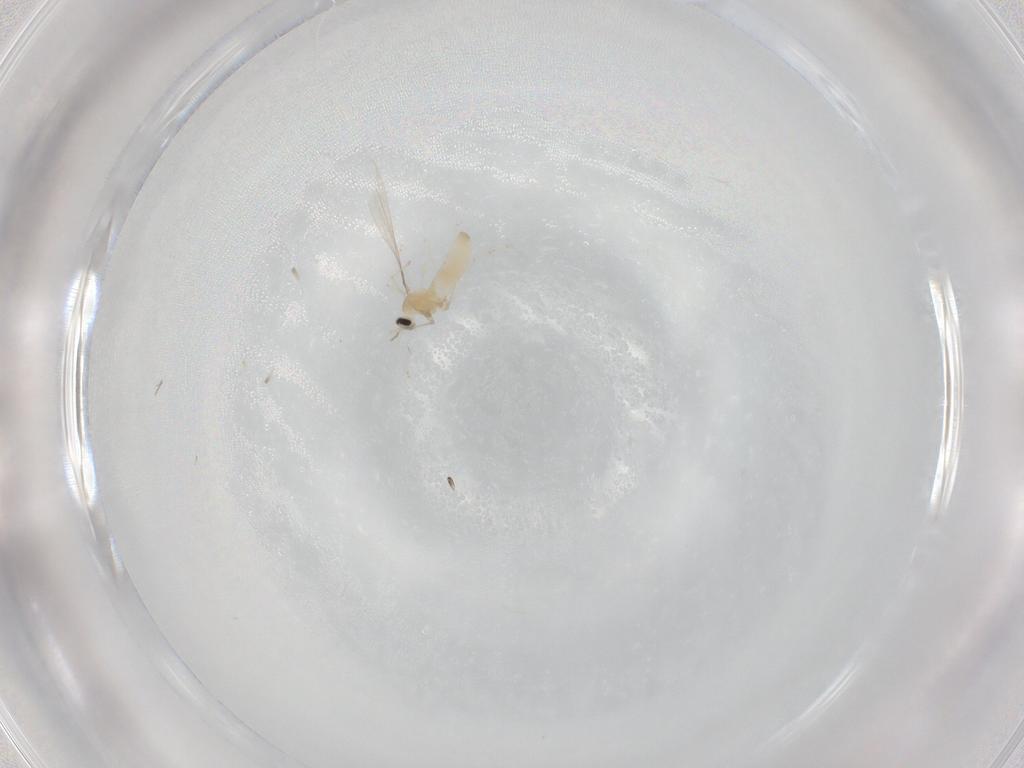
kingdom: Animalia
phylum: Arthropoda
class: Insecta
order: Diptera
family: Cecidomyiidae
